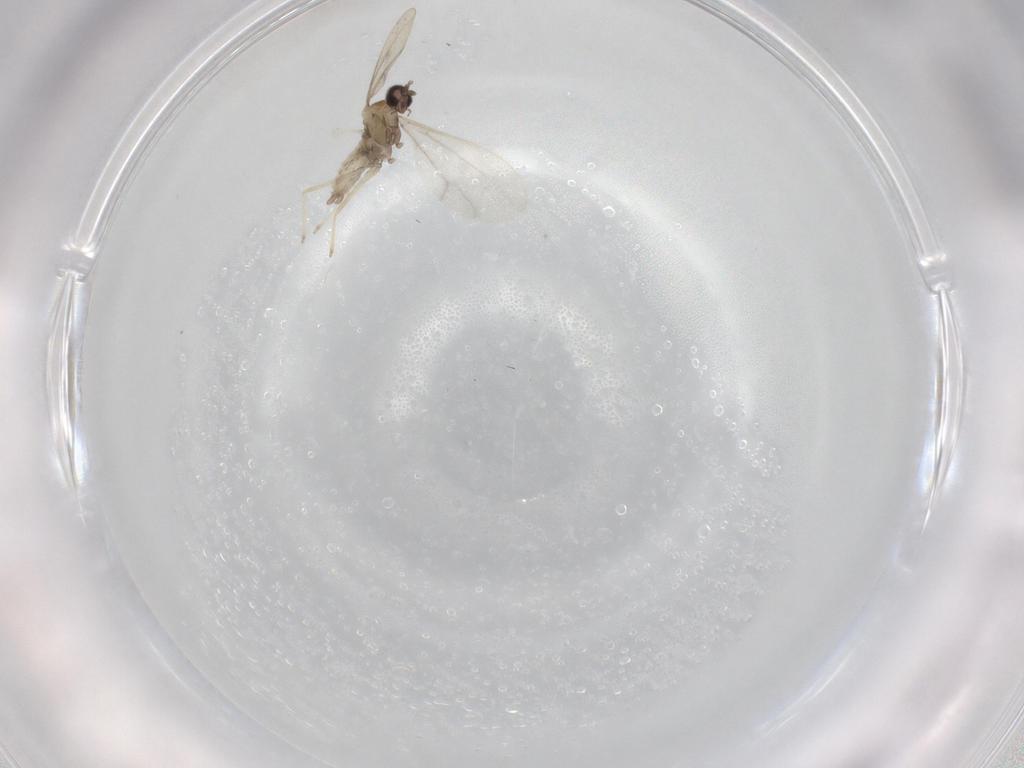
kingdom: Animalia
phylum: Arthropoda
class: Insecta
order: Diptera
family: Cecidomyiidae
